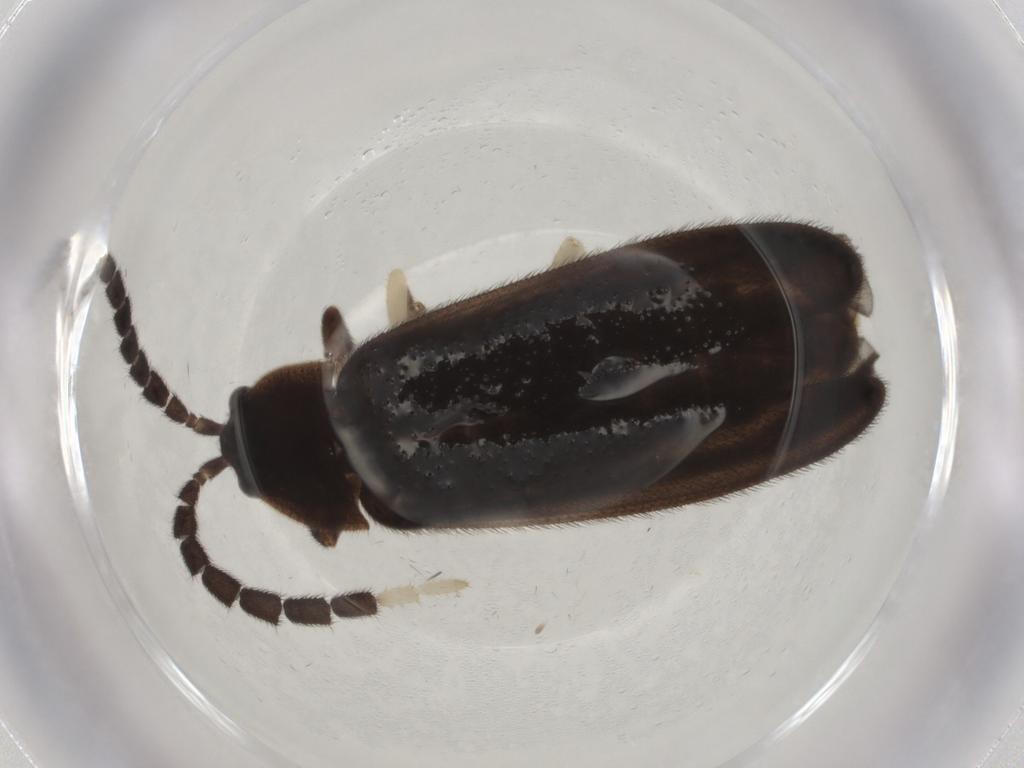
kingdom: Animalia
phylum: Arthropoda
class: Insecta
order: Coleoptera
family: Lampyridae
